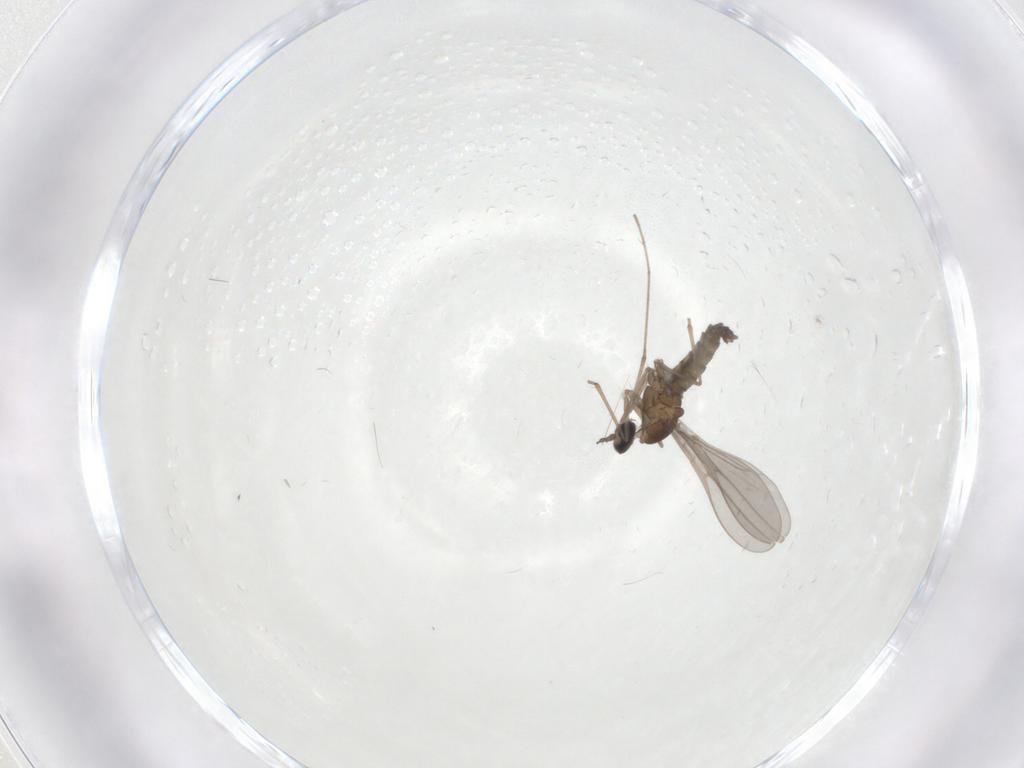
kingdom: Animalia
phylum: Arthropoda
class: Insecta
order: Diptera
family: Cecidomyiidae
